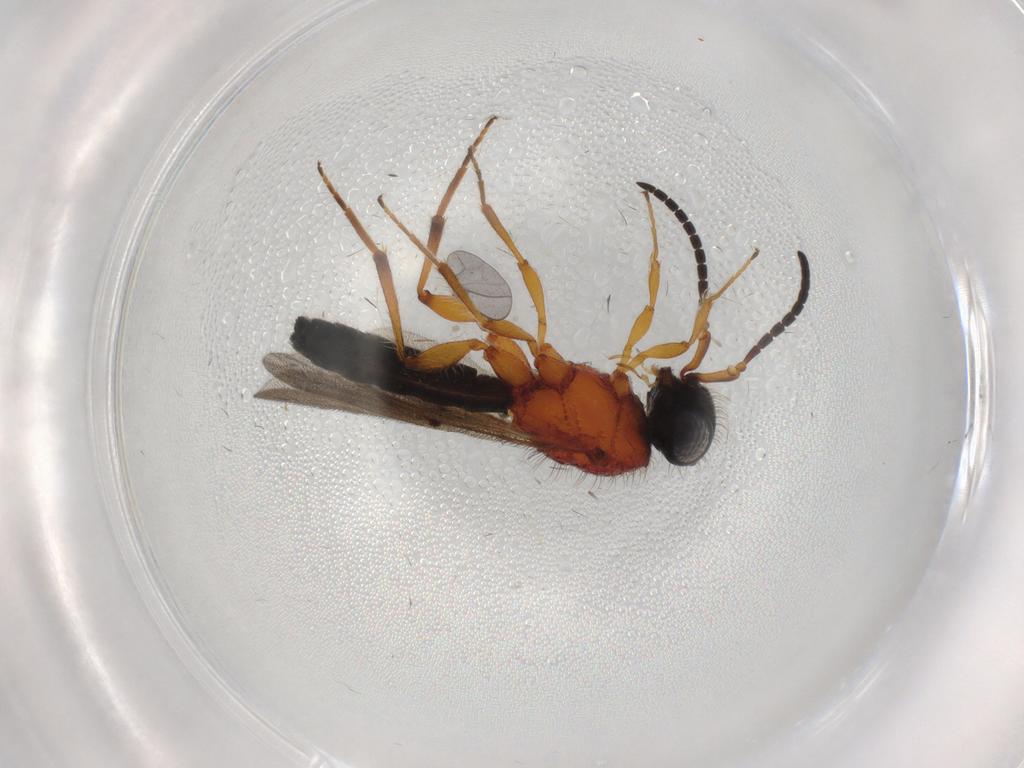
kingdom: Animalia
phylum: Arthropoda
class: Insecta
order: Hymenoptera
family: Scelionidae
